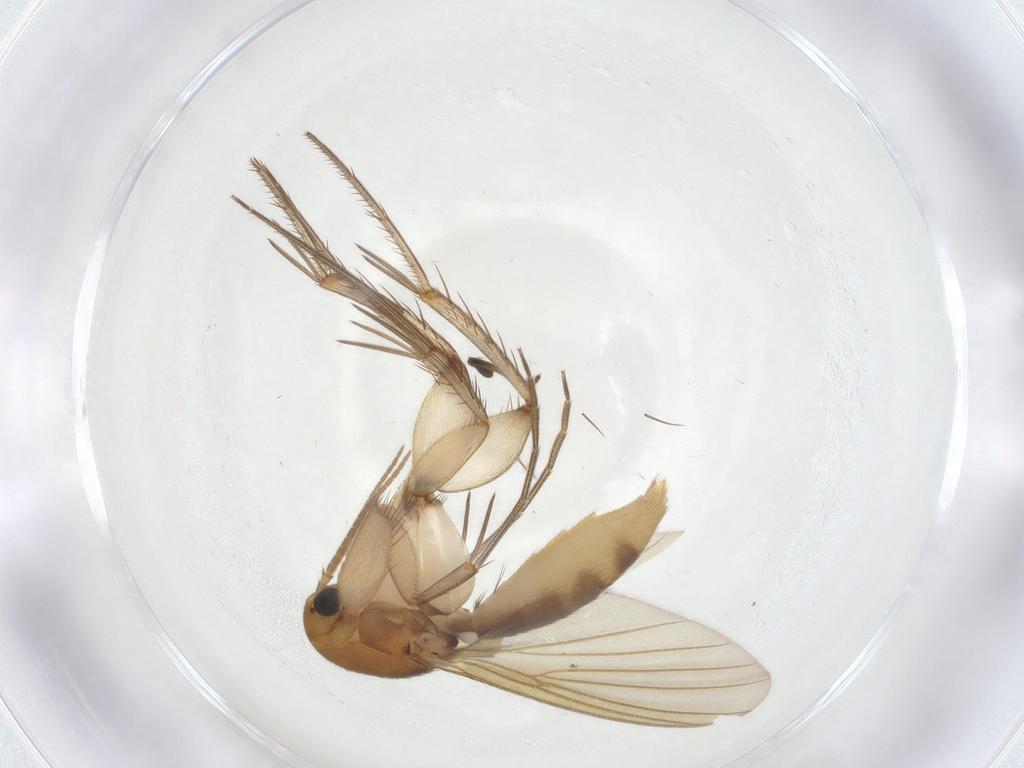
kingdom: Animalia
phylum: Arthropoda
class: Insecta
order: Diptera
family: Mycetophilidae
